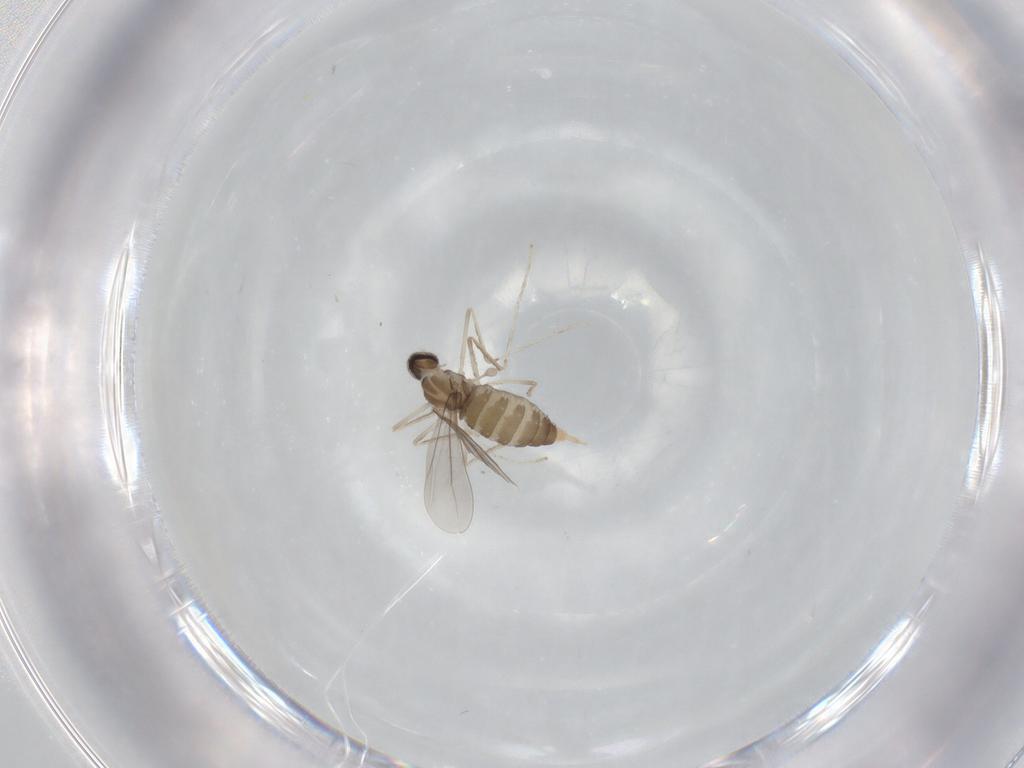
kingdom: Animalia
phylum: Arthropoda
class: Insecta
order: Diptera
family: Cecidomyiidae
